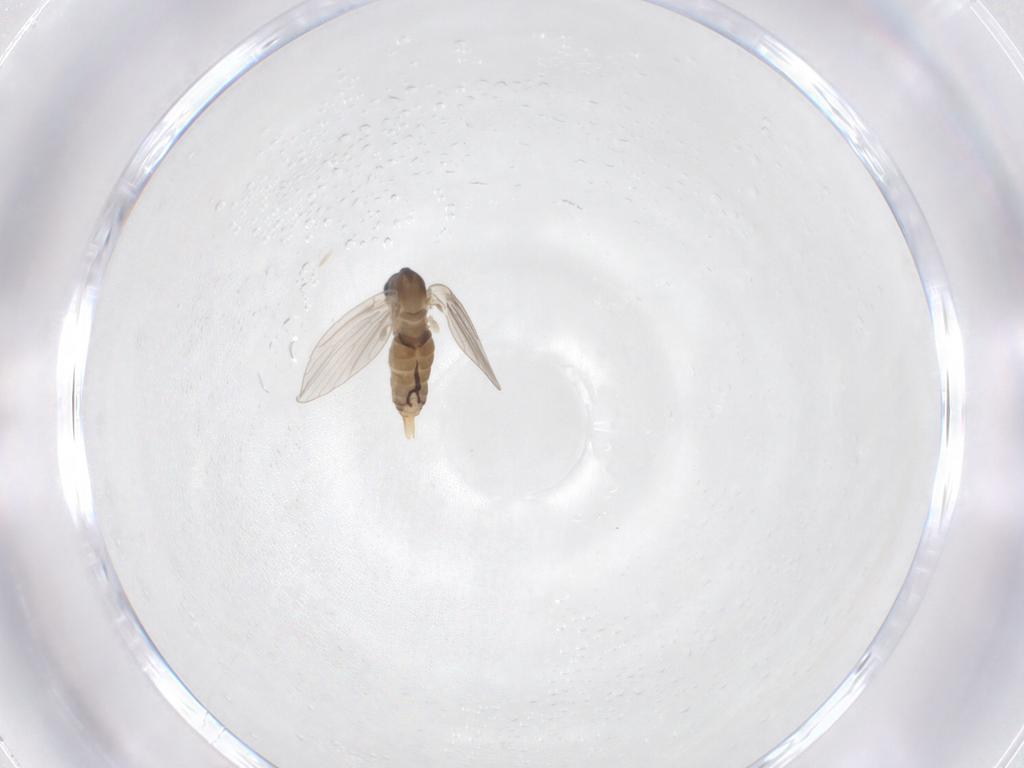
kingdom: Animalia
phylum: Arthropoda
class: Insecta
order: Diptera
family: Psychodidae
